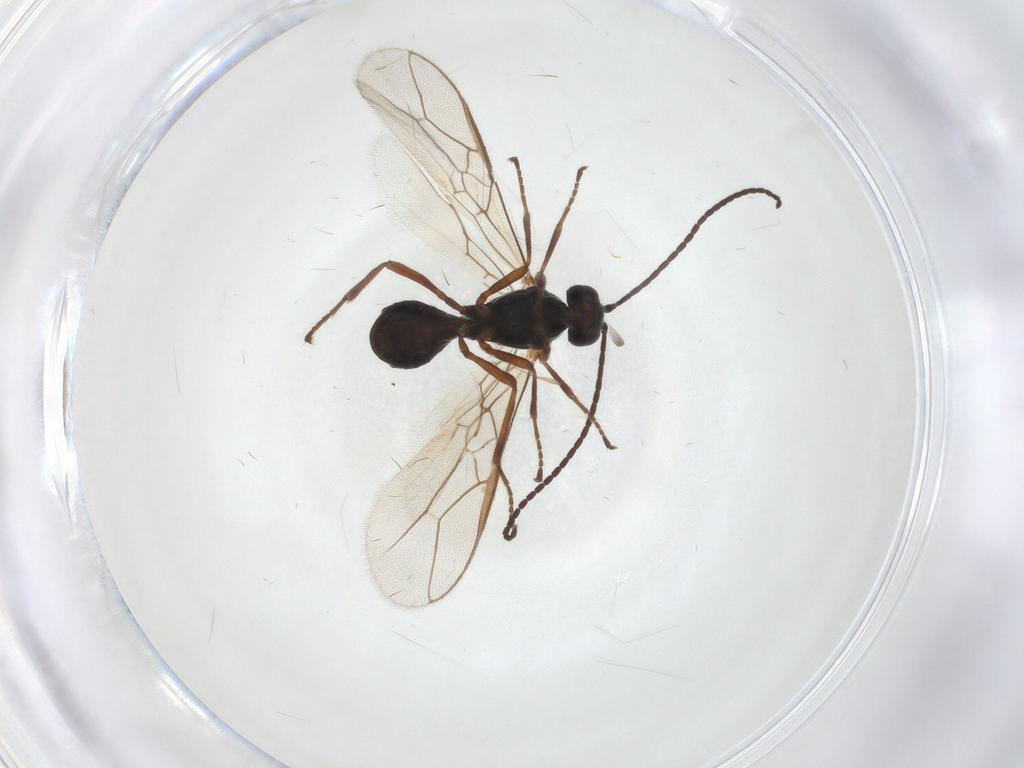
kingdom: Animalia
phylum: Arthropoda
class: Insecta
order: Hymenoptera
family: Braconidae
